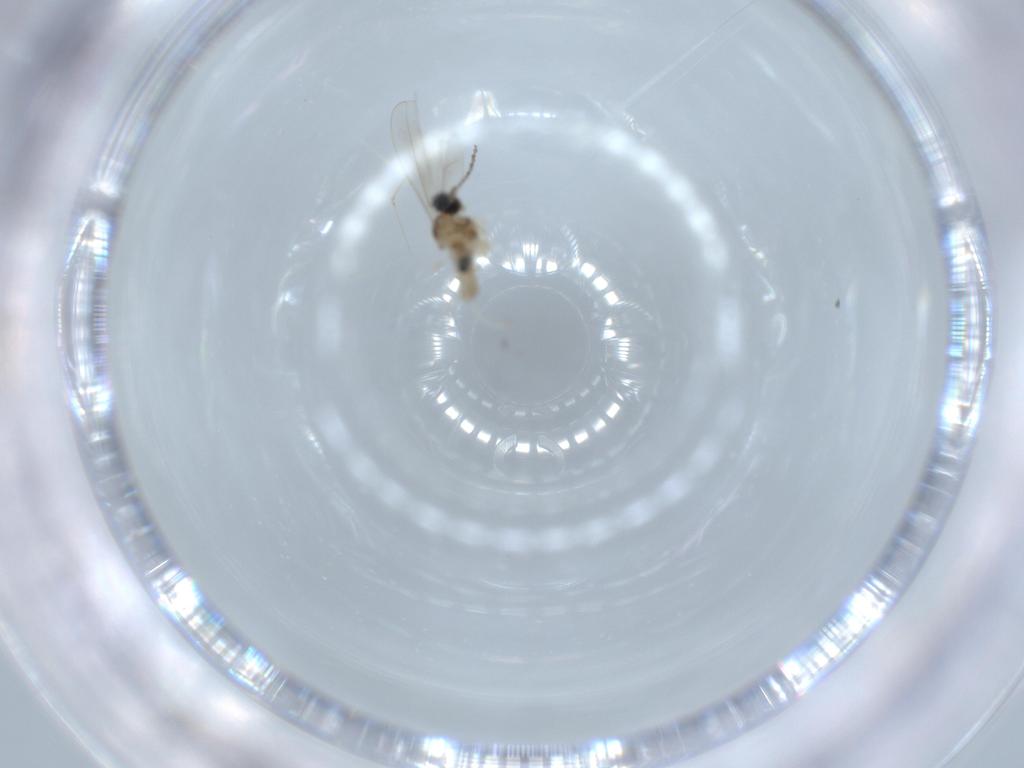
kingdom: Animalia
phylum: Arthropoda
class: Insecta
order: Diptera
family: Cecidomyiidae
